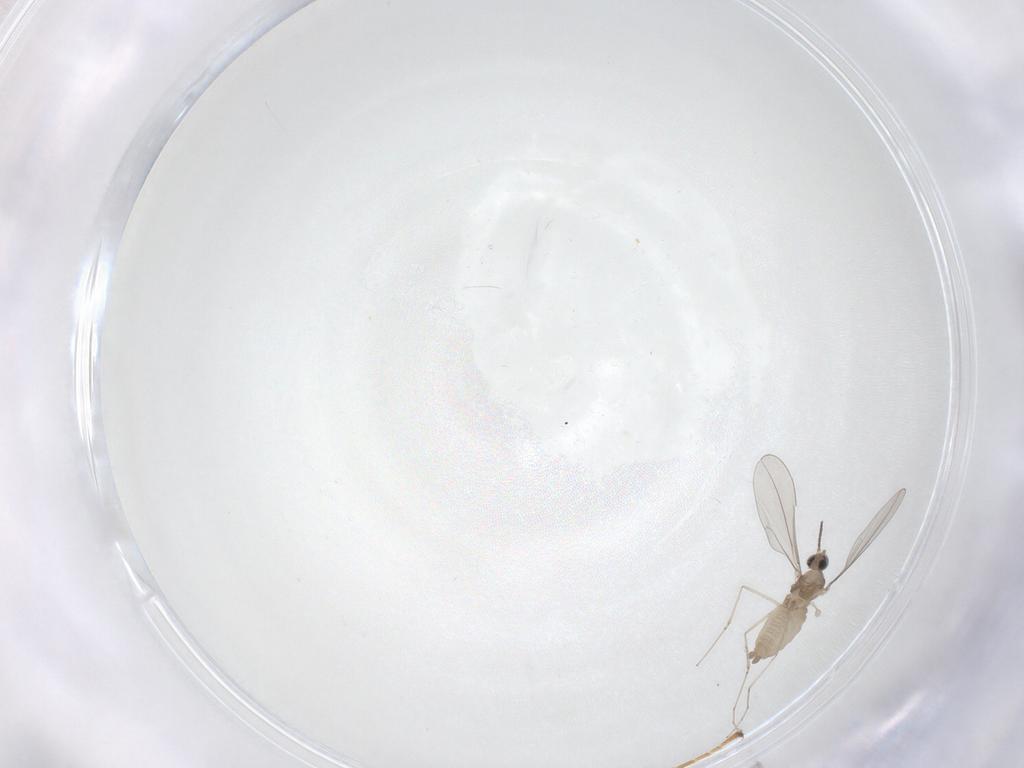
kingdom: Animalia
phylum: Arthropoda
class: Insecta
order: Diptera
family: Cecidomyiidae
